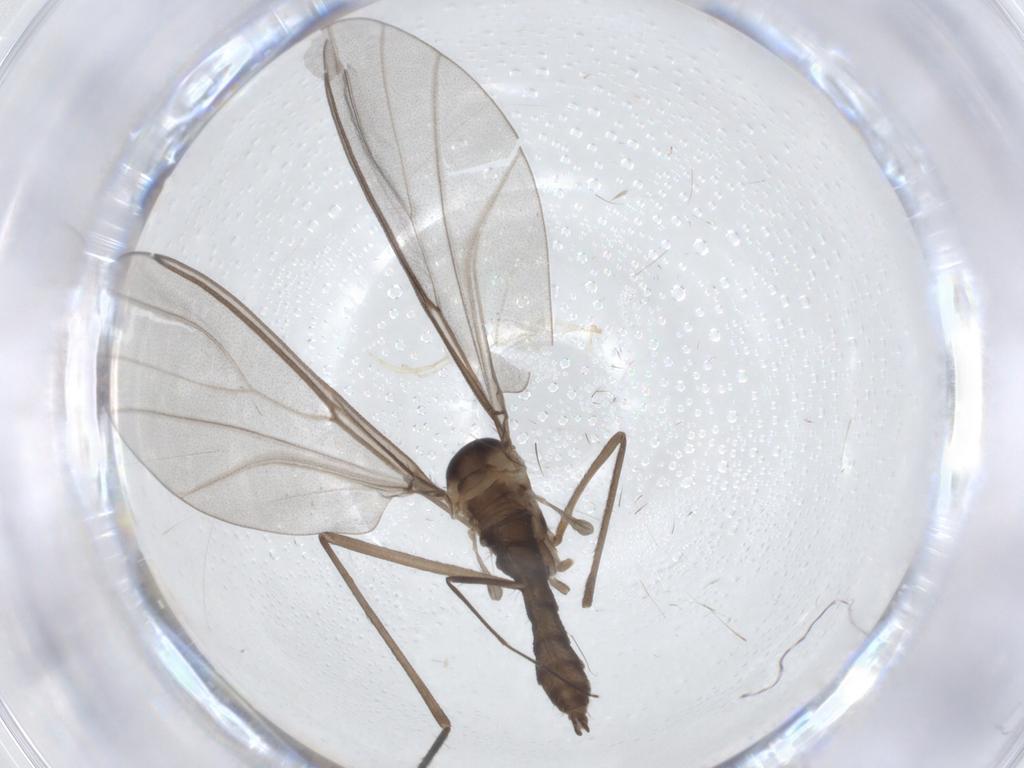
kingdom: Animalia
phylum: Arthropoda
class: Insecta
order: Diptera
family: Cecidomyiidae
